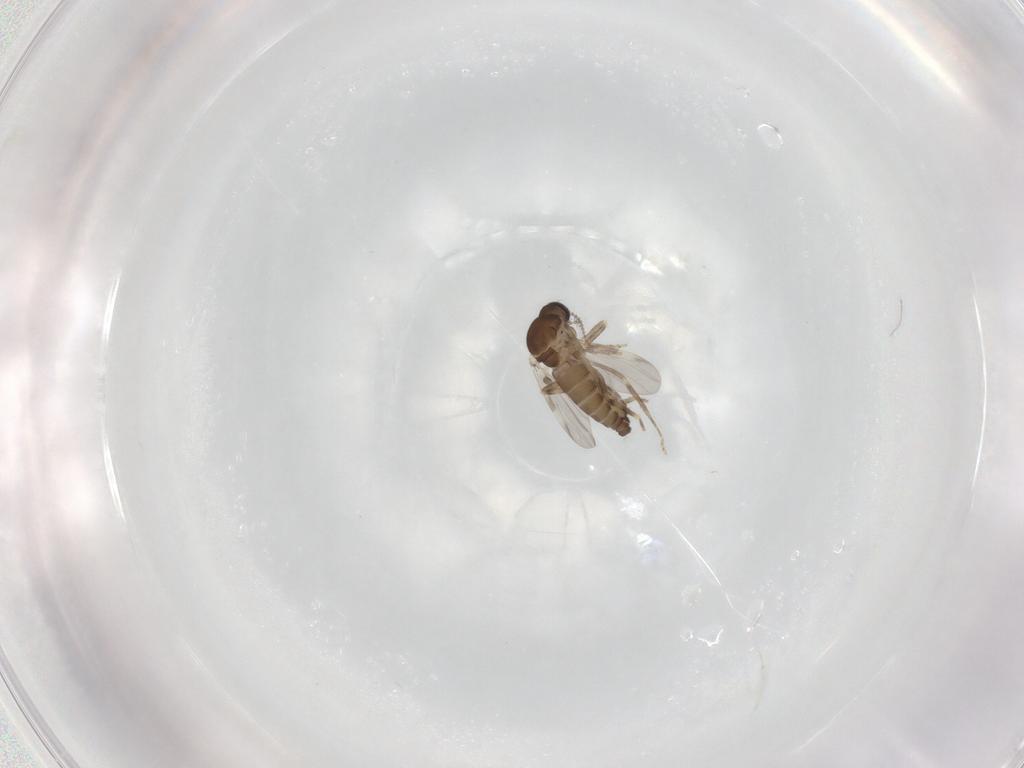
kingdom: Animalia
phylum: Arthropoda
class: Insecta
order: Diptera
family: Ceratopogonidae
